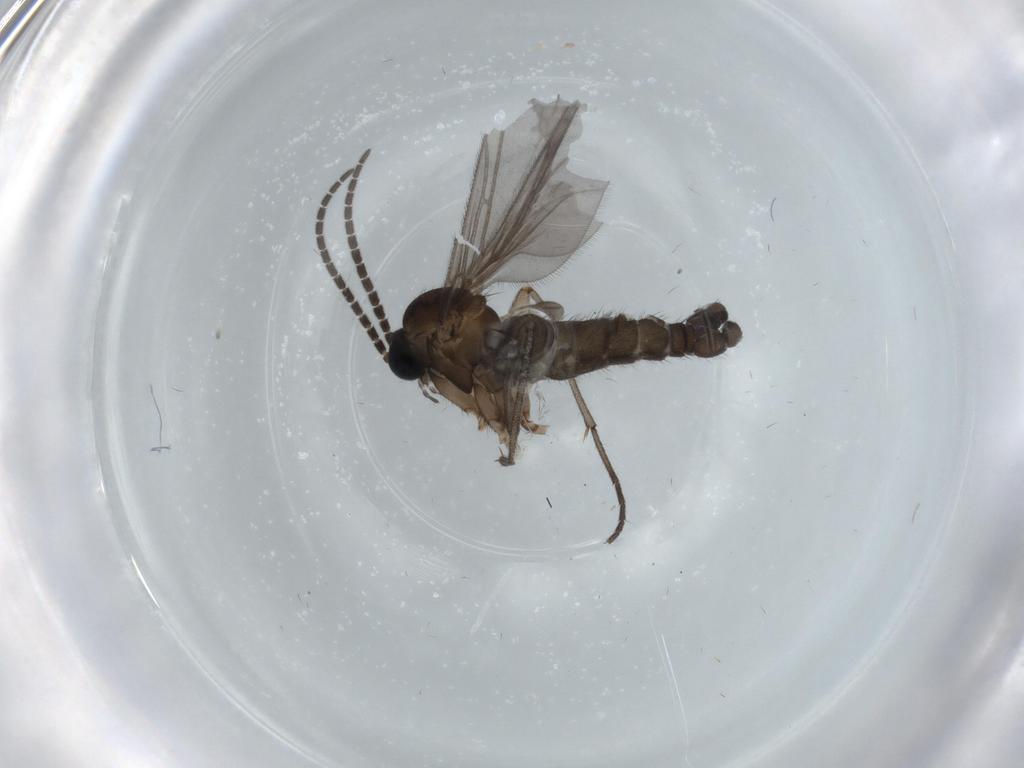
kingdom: Animalia
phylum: Arthropoda
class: Insecta
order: Diptera
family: Sciaridae
